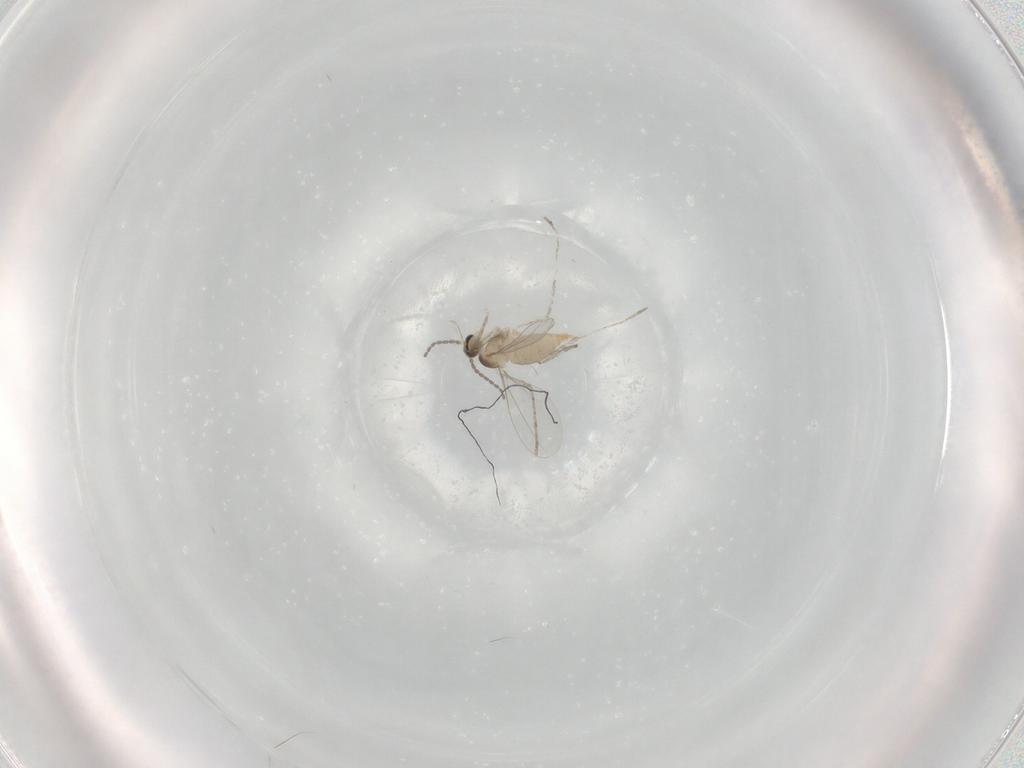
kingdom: Animalia
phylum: Arthropoda
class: Insecta
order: Diptera
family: Cecidomyiidae
